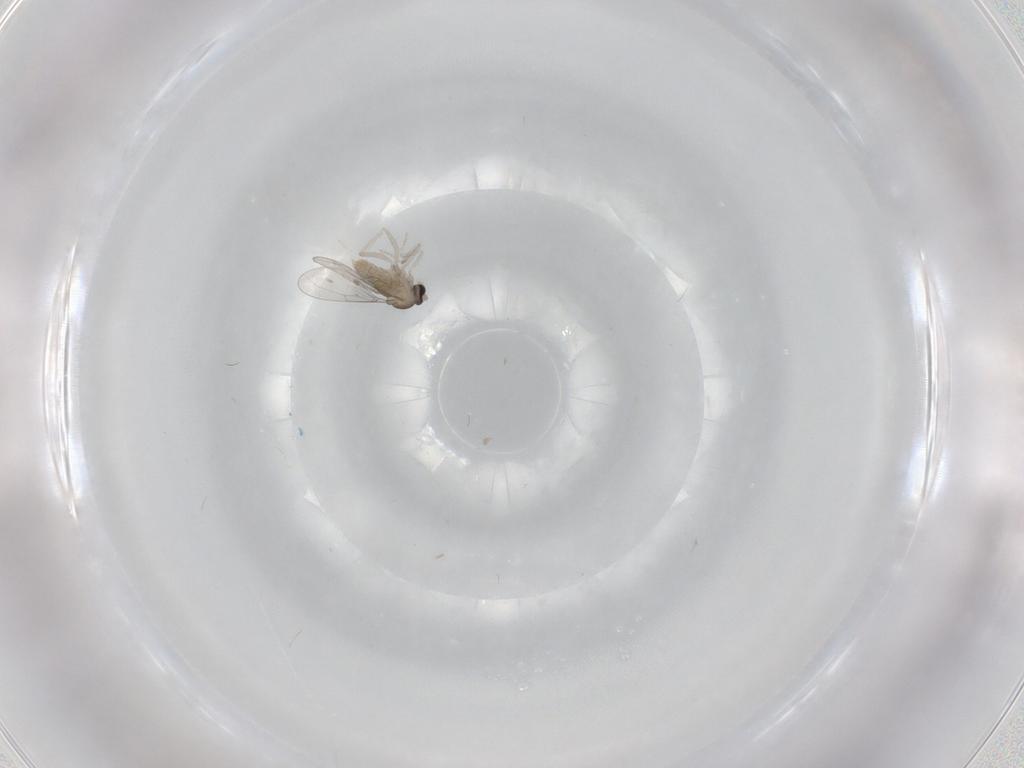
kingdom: Animalia
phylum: Arthropoda
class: Insecta
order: Diptera
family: Cecidomyiidae
